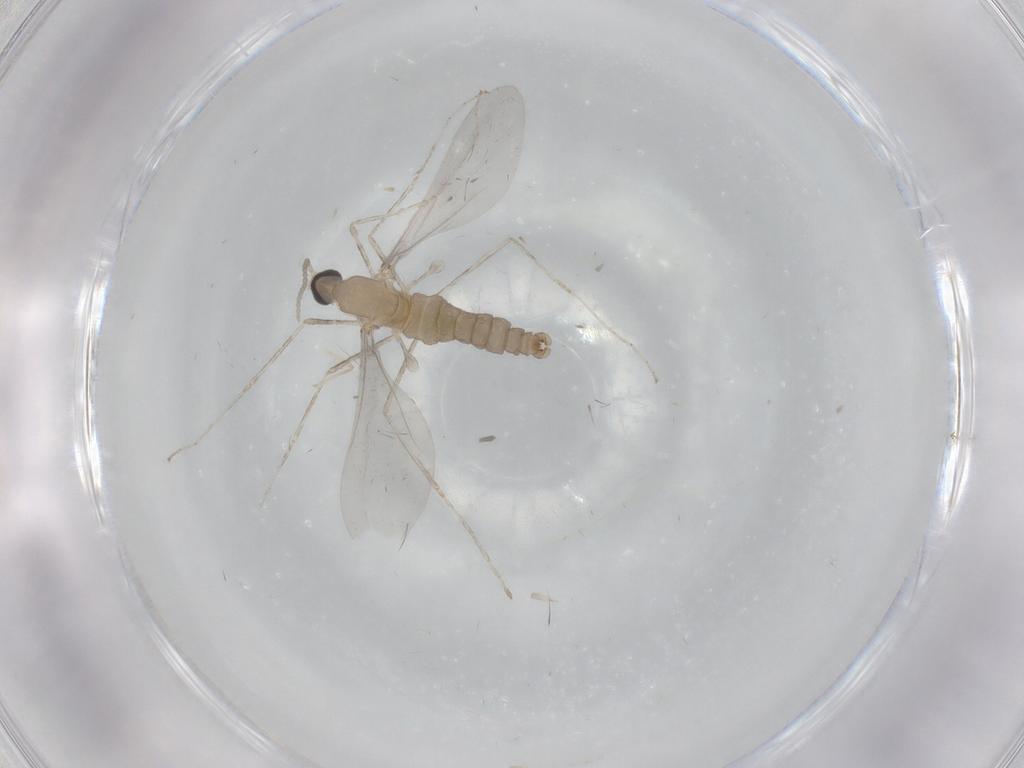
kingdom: Animalia
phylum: Arthropoda
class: Insecta
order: Diptera
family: Cecidomyiidae
